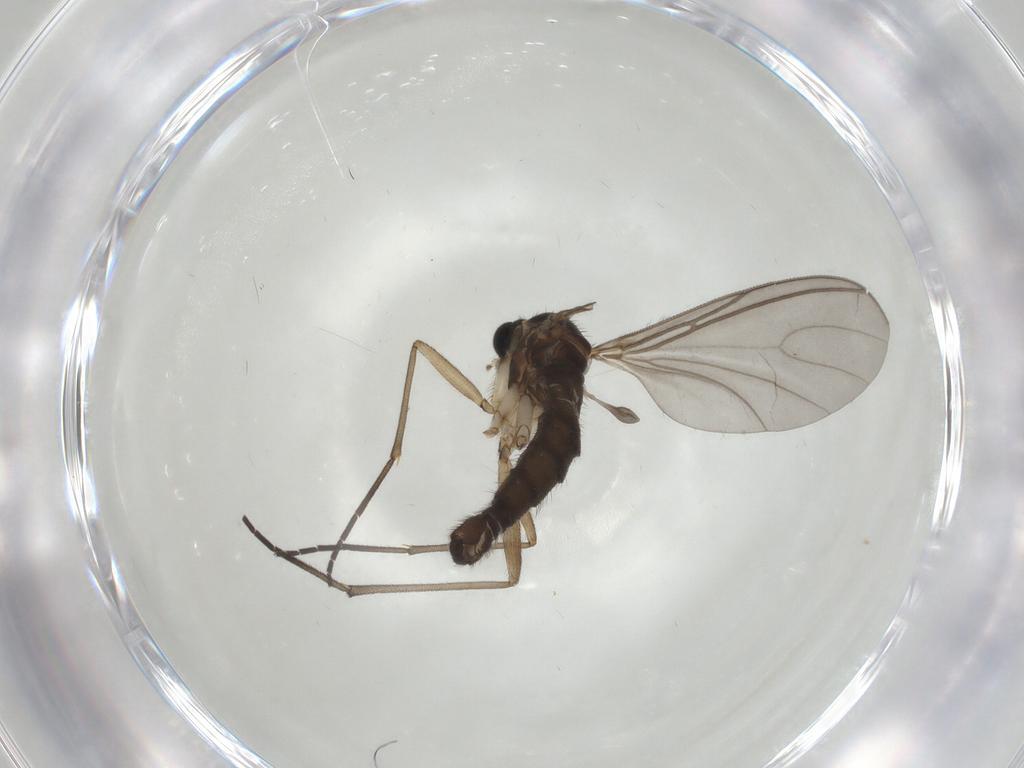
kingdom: Animalia
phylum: Arthropoda
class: Insecta
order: Diptera
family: Sciaridae
